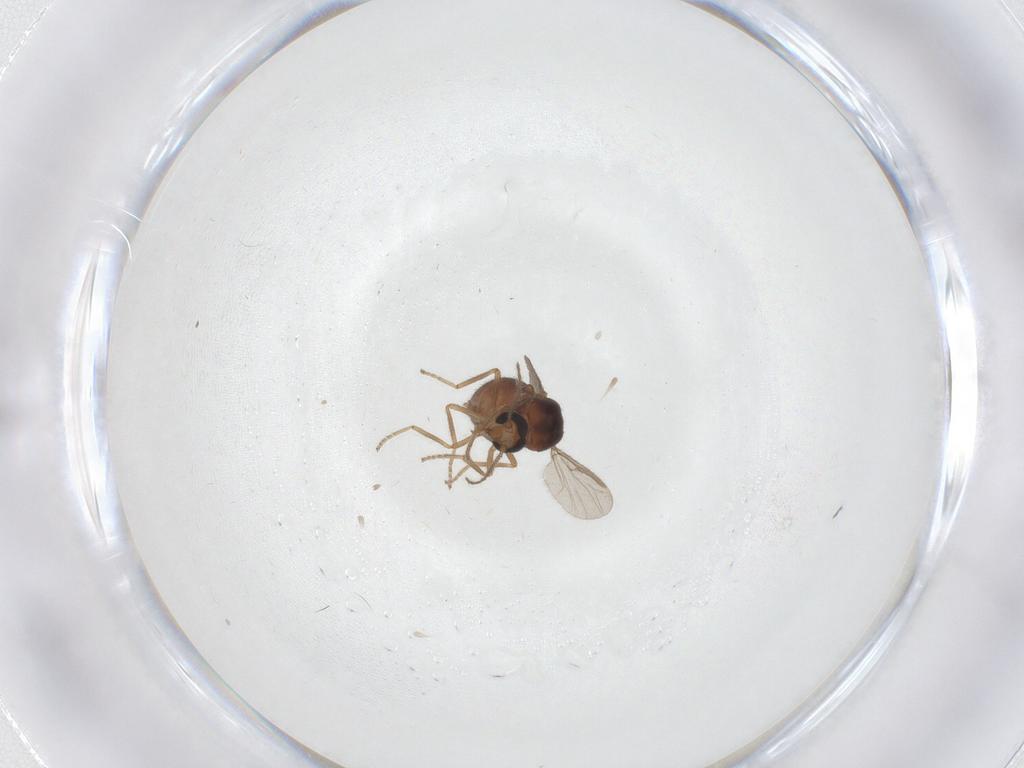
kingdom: Animalia
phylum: Arthropoda
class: Insecta
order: Diptera
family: Ceratopogonidae
